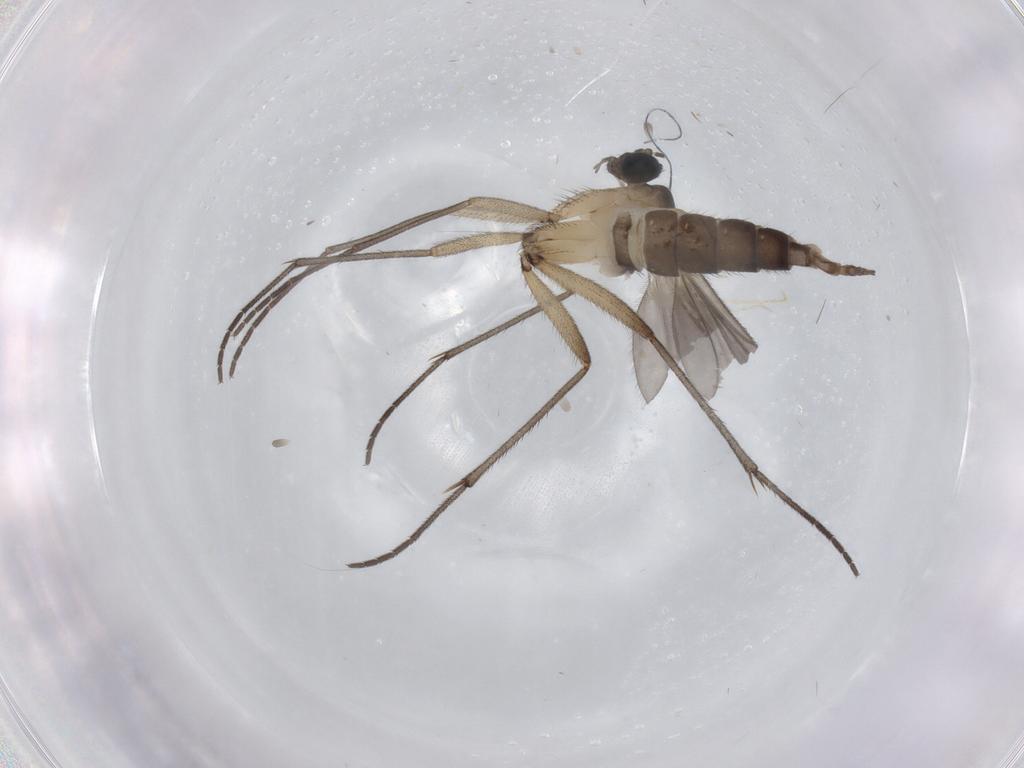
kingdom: Animalia
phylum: Arthropoda
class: Insecta
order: Diptera
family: Sciaridae
